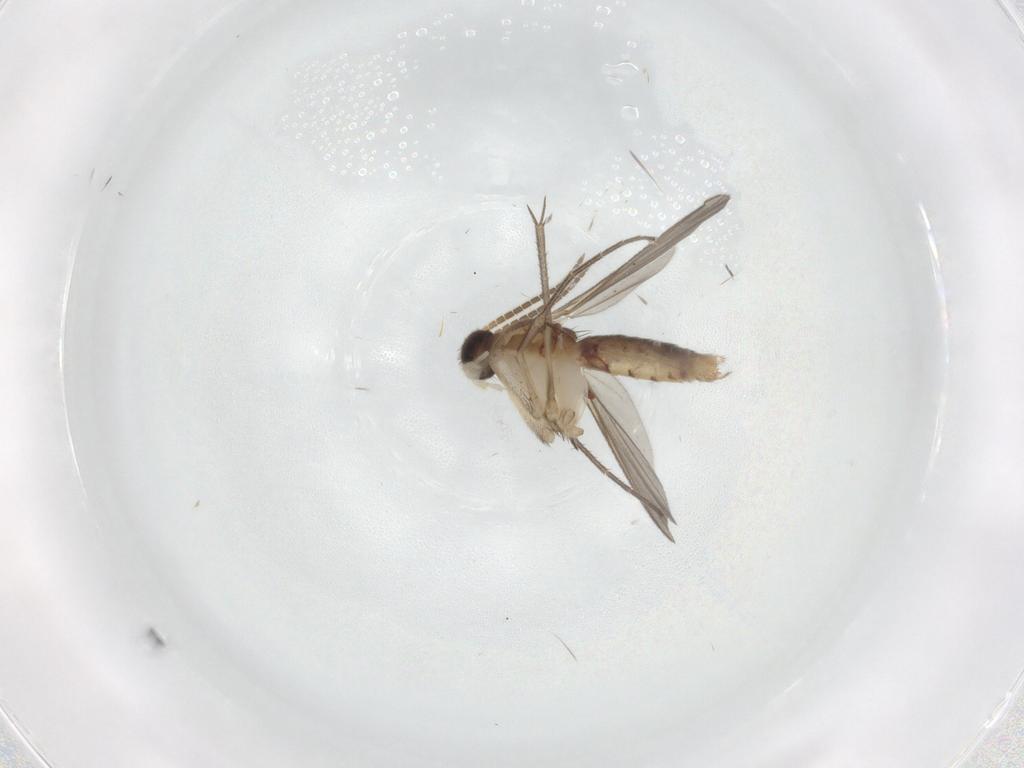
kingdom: Animalia
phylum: Arthropoda
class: Insecta
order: Diptera
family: Mycetophilidae
